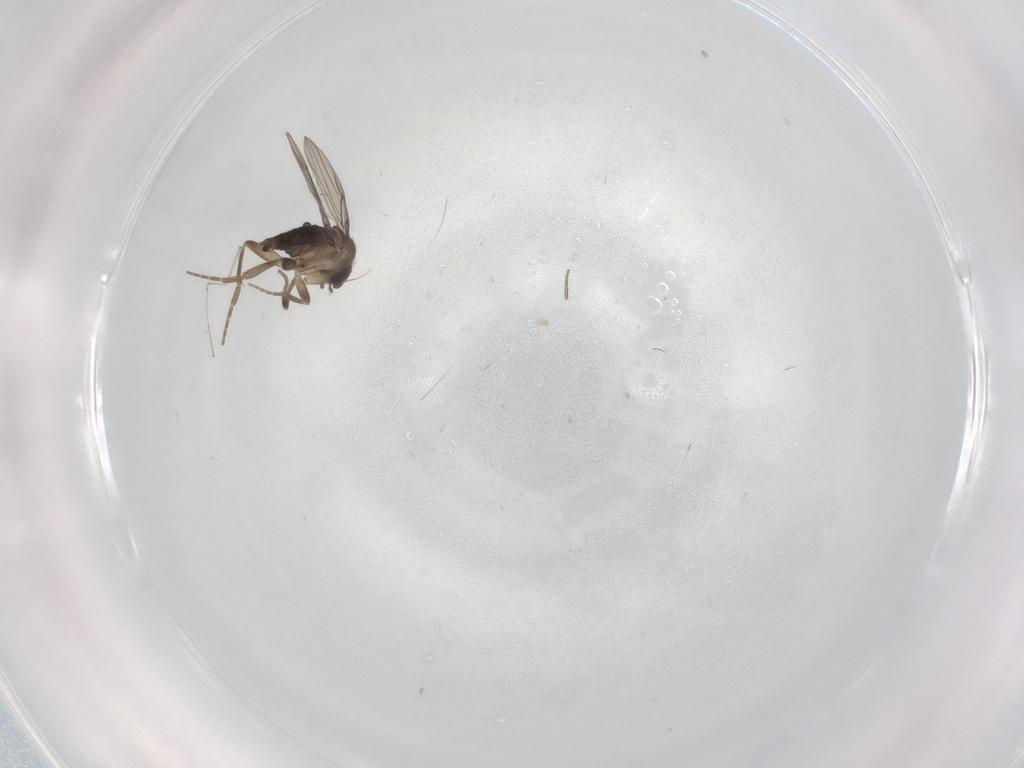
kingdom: Animalia
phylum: Arthropoda
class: Insecta
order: Diptera
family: Phoridae
